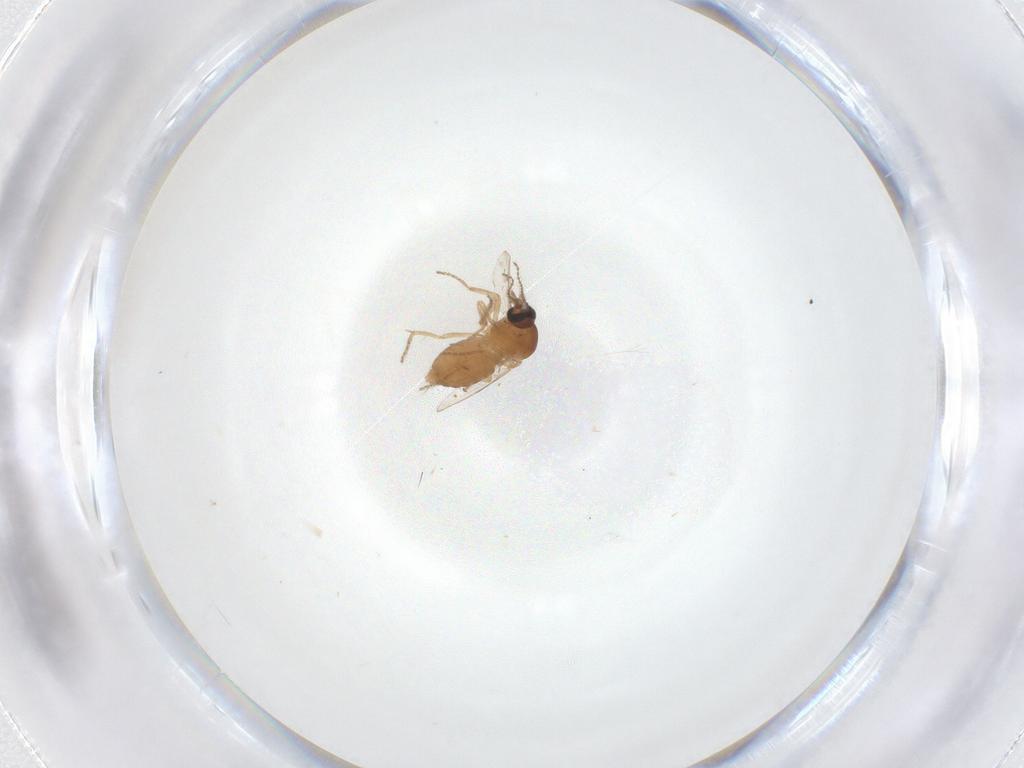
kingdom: Animalia
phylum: Arthropoda
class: Insecta
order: Diptera
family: Ceratopogonidae
